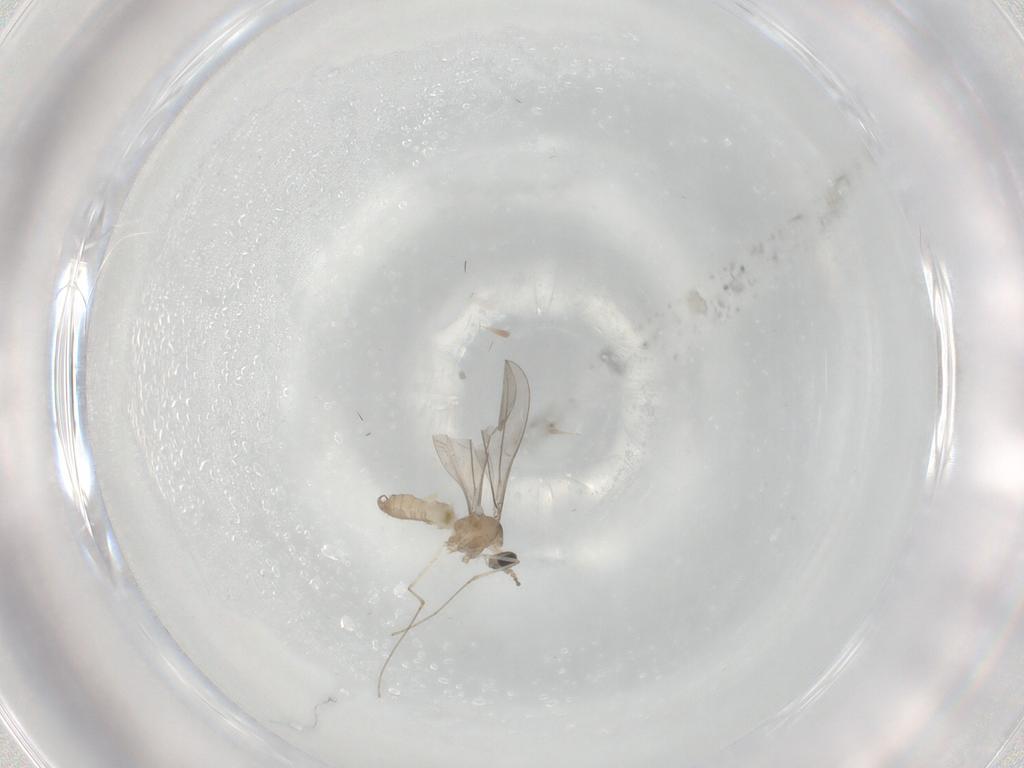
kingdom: Animalia
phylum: Arthropoda
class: Insecta
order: Diptera
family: Cecidomyiidae
